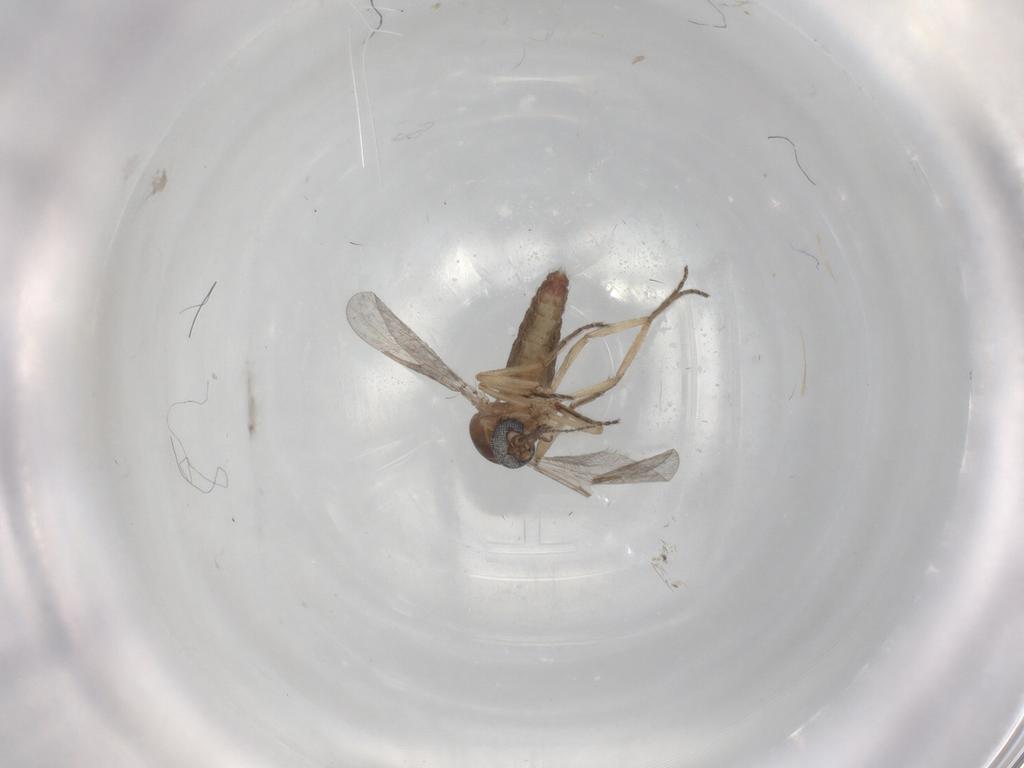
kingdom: Animalia
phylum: Arthropoda
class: Insecta
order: Diptera
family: Ceratopogonidae
